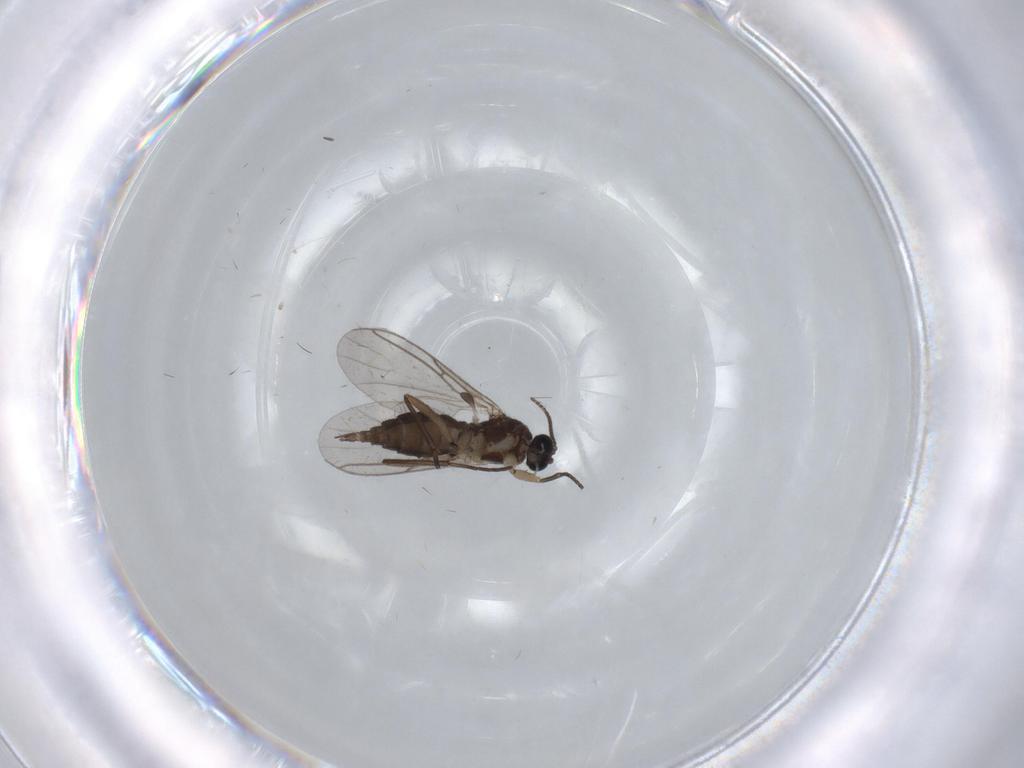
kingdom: Animalia
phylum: Arthropoda
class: Insecta
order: Diptera
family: Sciaridae
